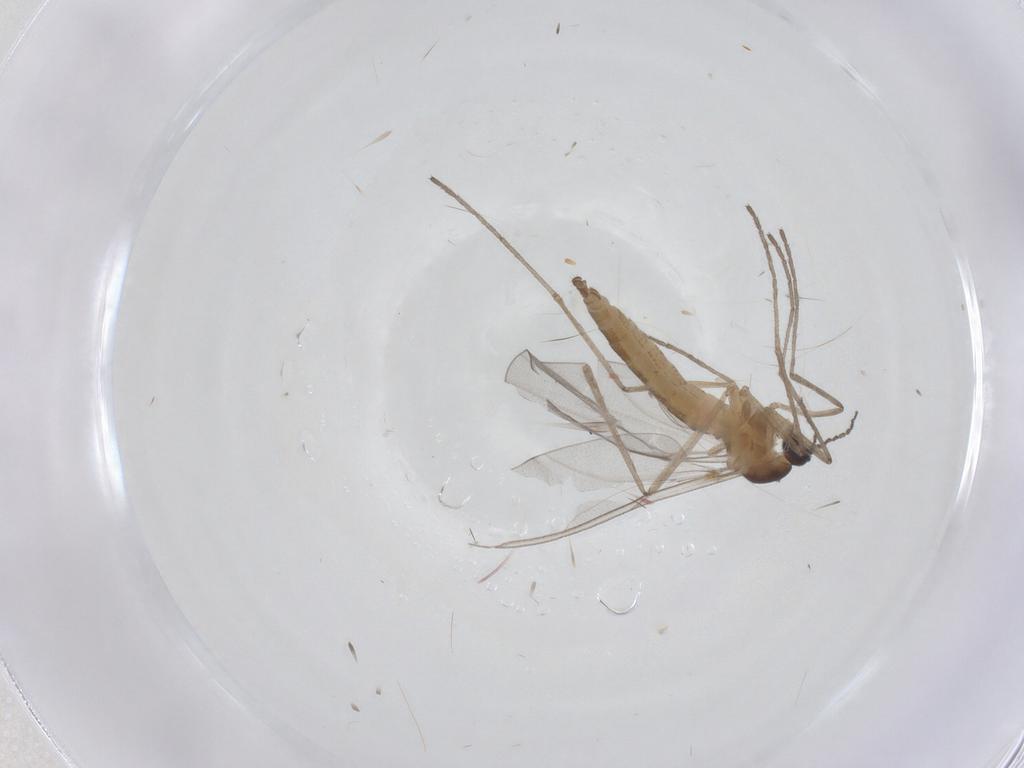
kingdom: Animalia
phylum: Arthropoda
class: Insecta
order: Diptera
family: Cecidomyiidae
